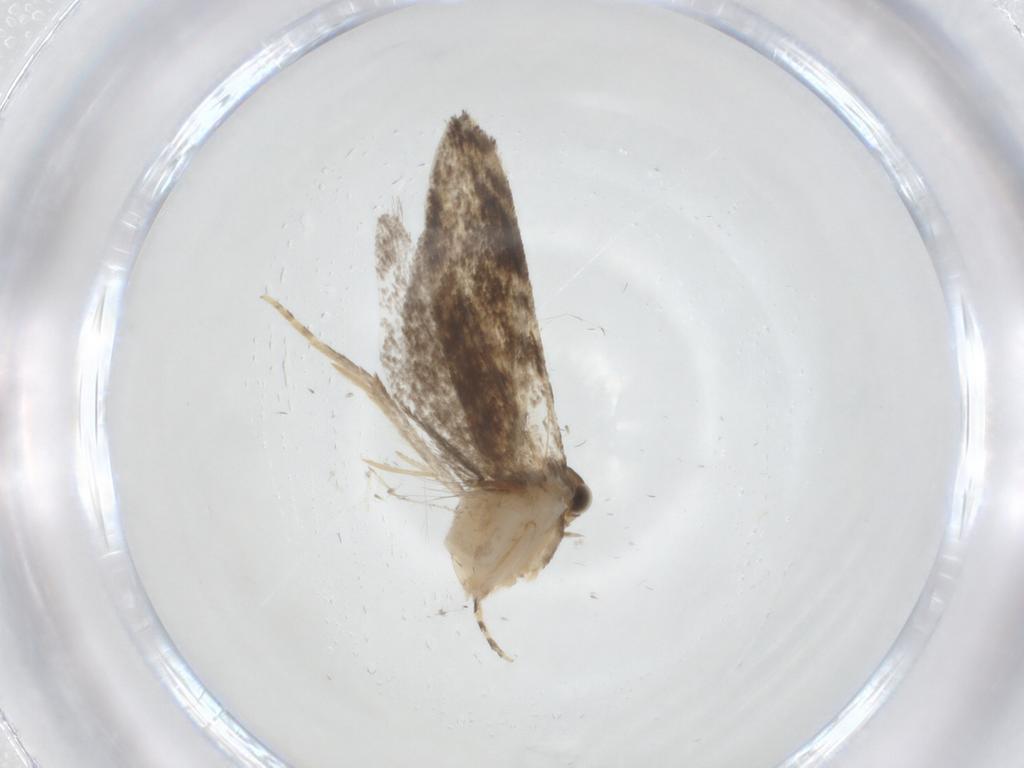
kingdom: Animalia
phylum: Arthropoda
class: Insecta
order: Lepidoptera
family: Tineidae
